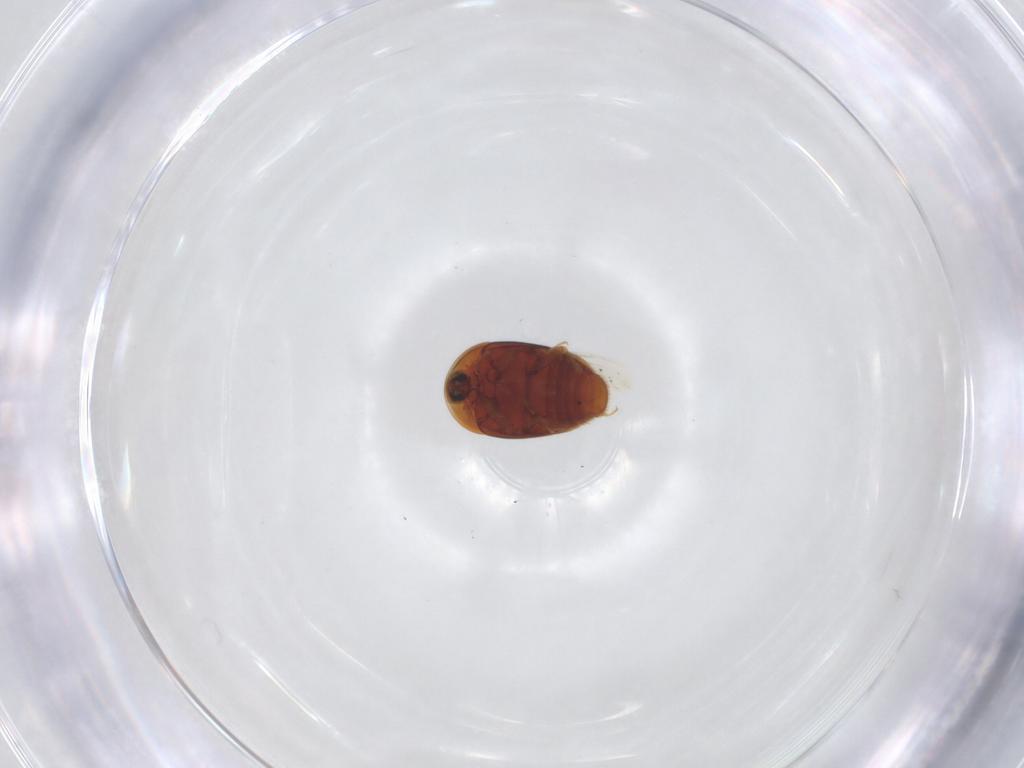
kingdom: Animalia
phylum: Arthropoda
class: Insecta
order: Coleoptera
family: Corylophidae
